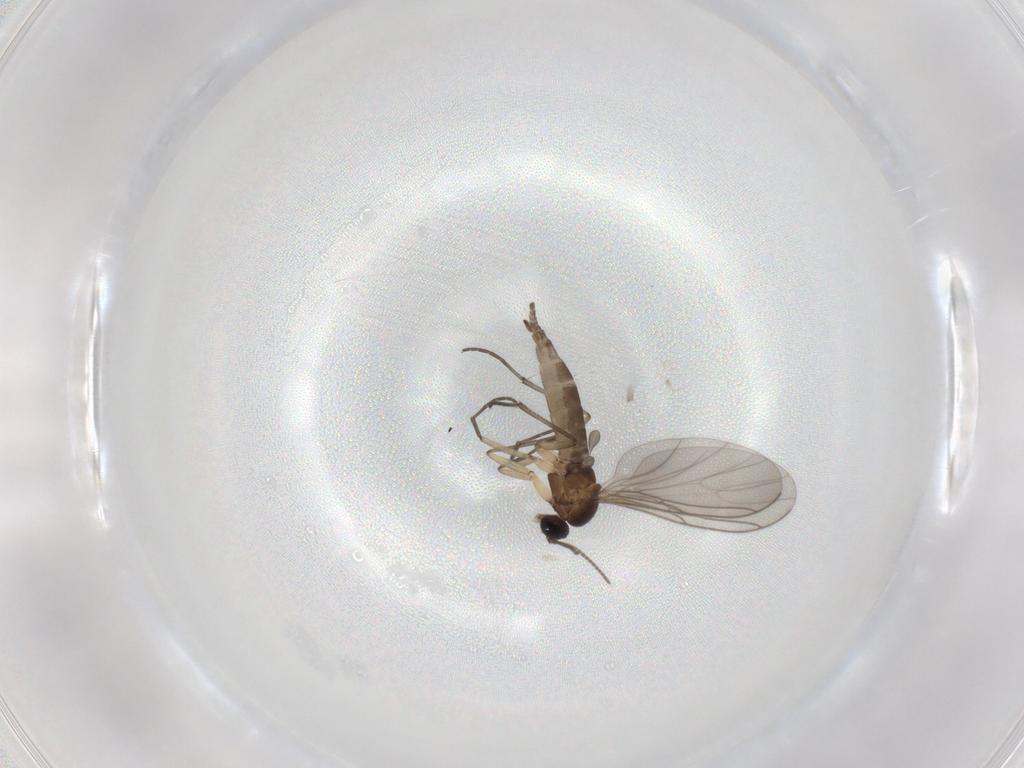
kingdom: Animalia
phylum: Arthropoda
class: Insecta
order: Diptera
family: Sciaridae
